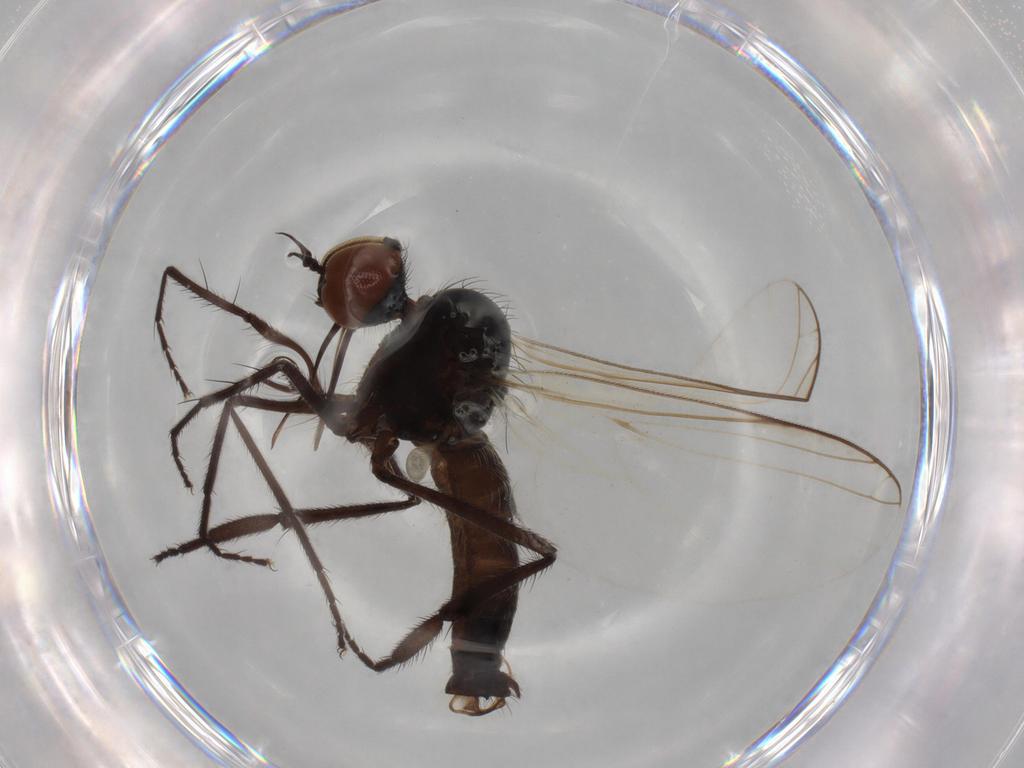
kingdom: Animalia
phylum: Arthropoda
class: Insecta
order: Diptera
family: Empididae
